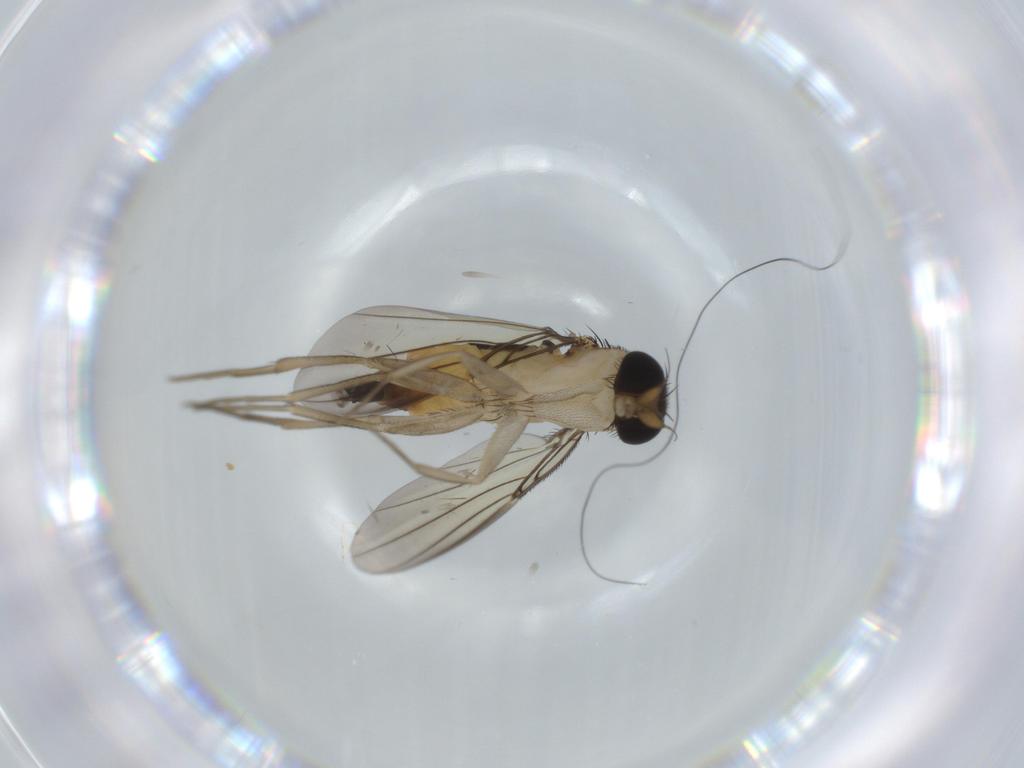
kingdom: Animalia
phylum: Arthropoda
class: Insecta
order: Diptera
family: Phoridae
